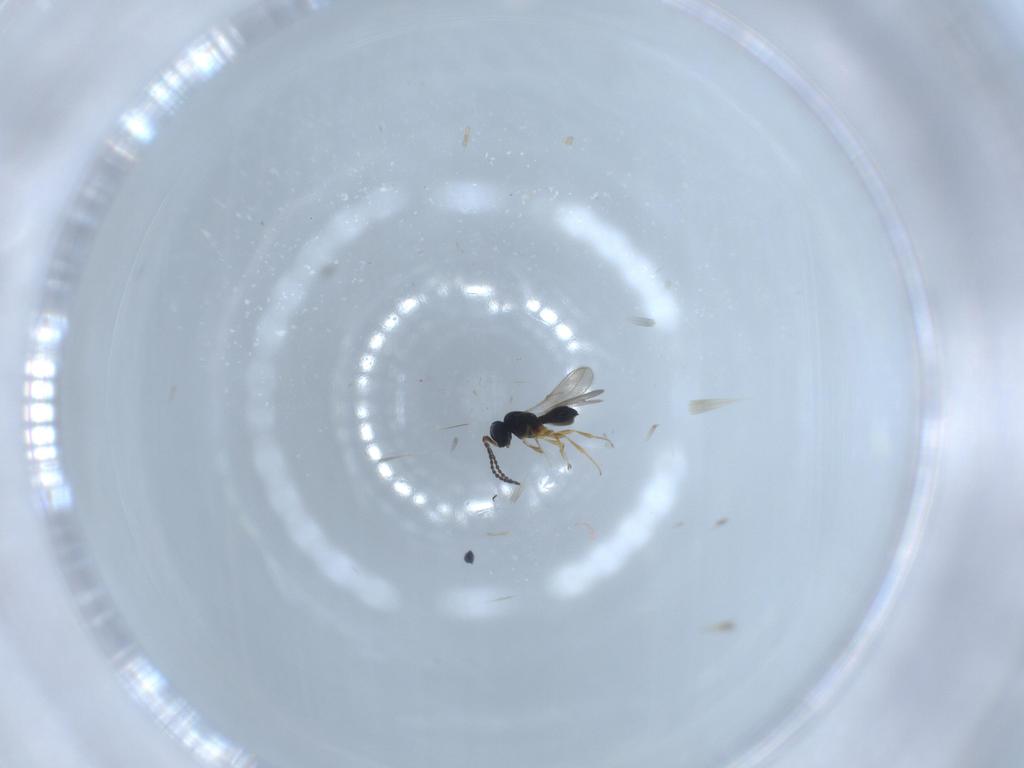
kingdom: Animalia
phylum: Arthropoda
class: Insecta
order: Hymenoptera
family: Scelionidae
